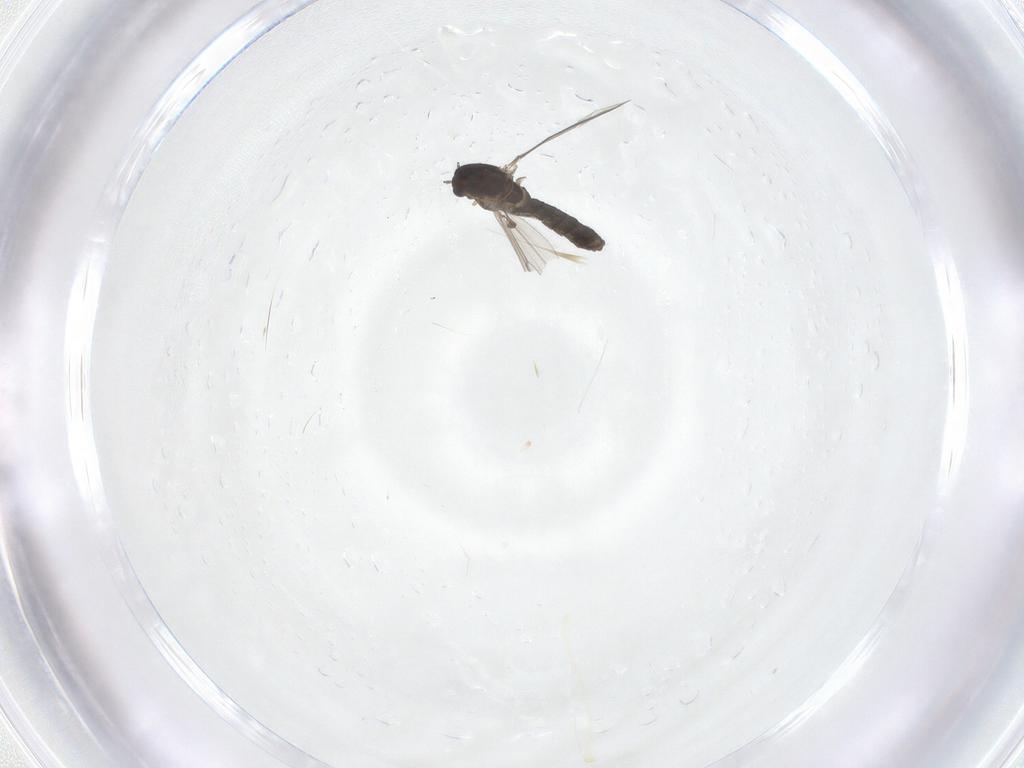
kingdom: Animalia
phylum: Arthropoda
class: Insecta
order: Diptera
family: Chironomidae
